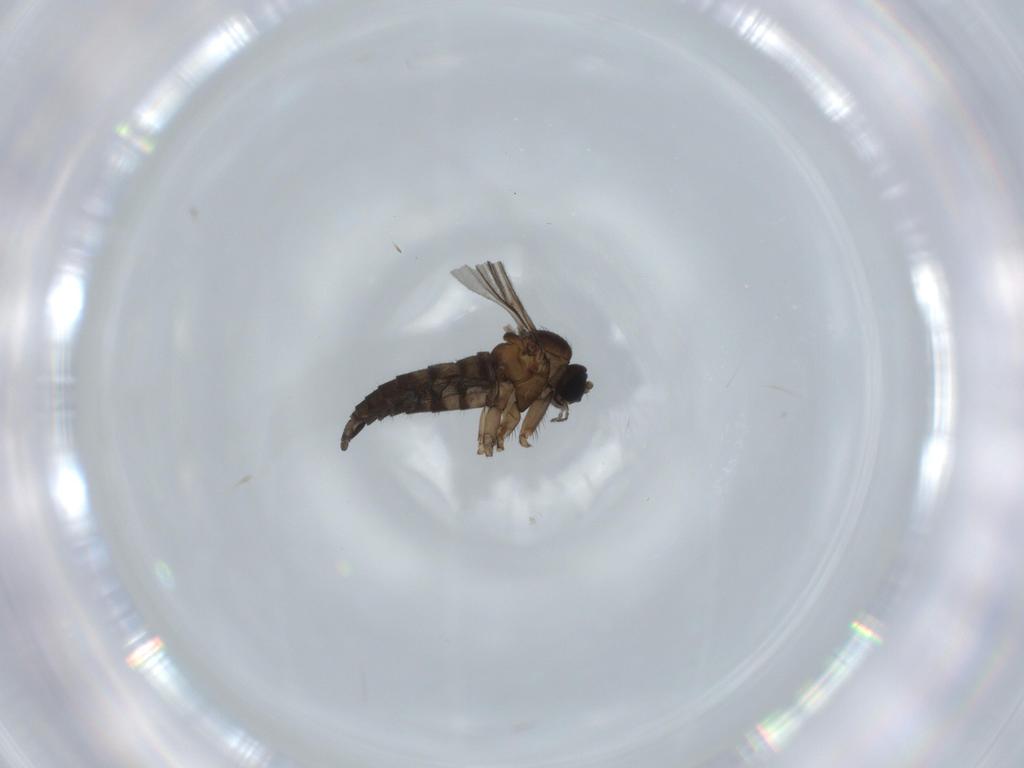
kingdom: Animalia
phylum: Arthropoda
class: Insecta
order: Diptera
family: Sciaridae
